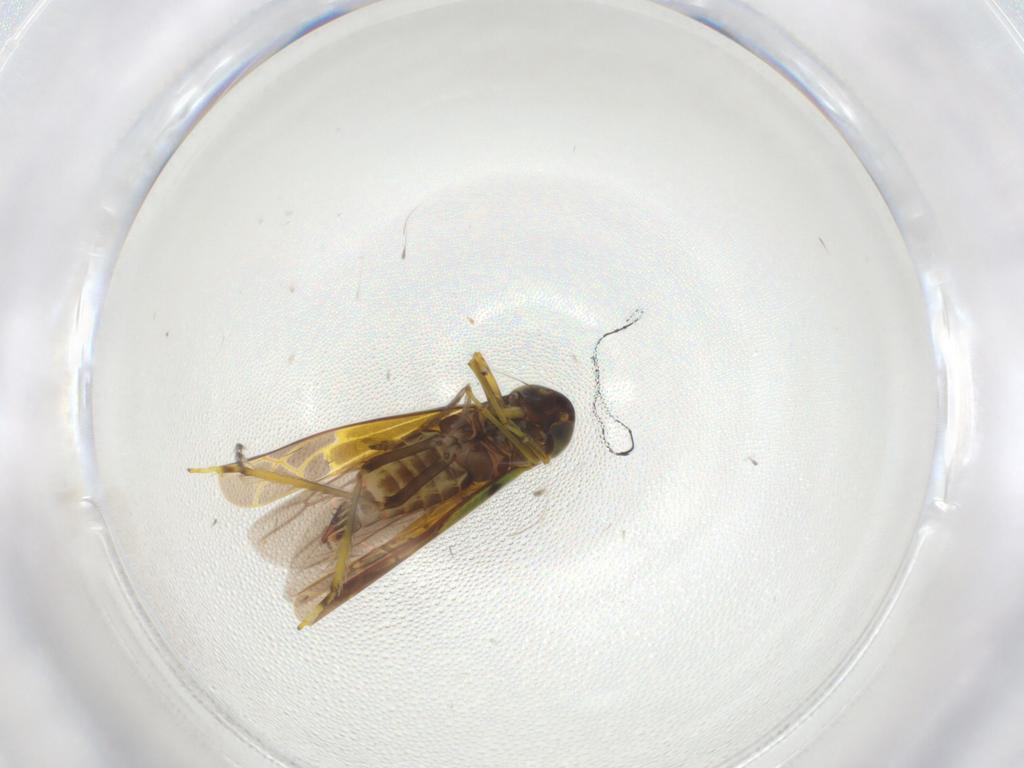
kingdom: Animalia
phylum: Arthropoda
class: Insecta
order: Hemiptera
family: Cicadellidae
